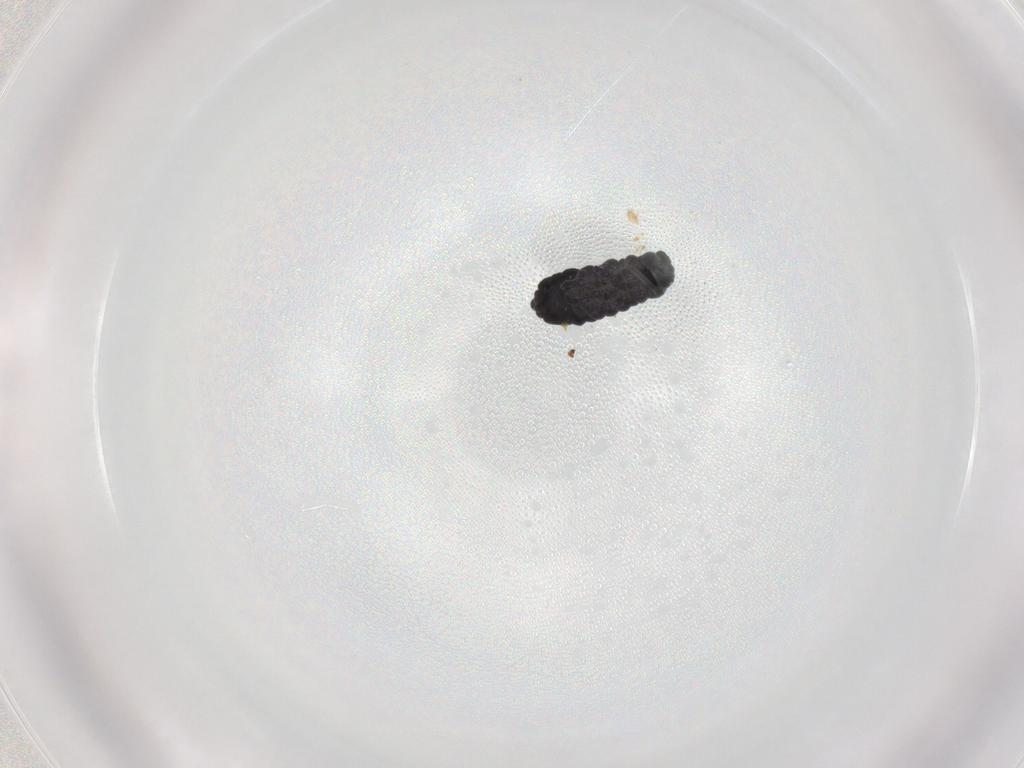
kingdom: Animalia
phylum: Arthropoda
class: Collembola
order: Poduromorpha
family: Neanuridae
